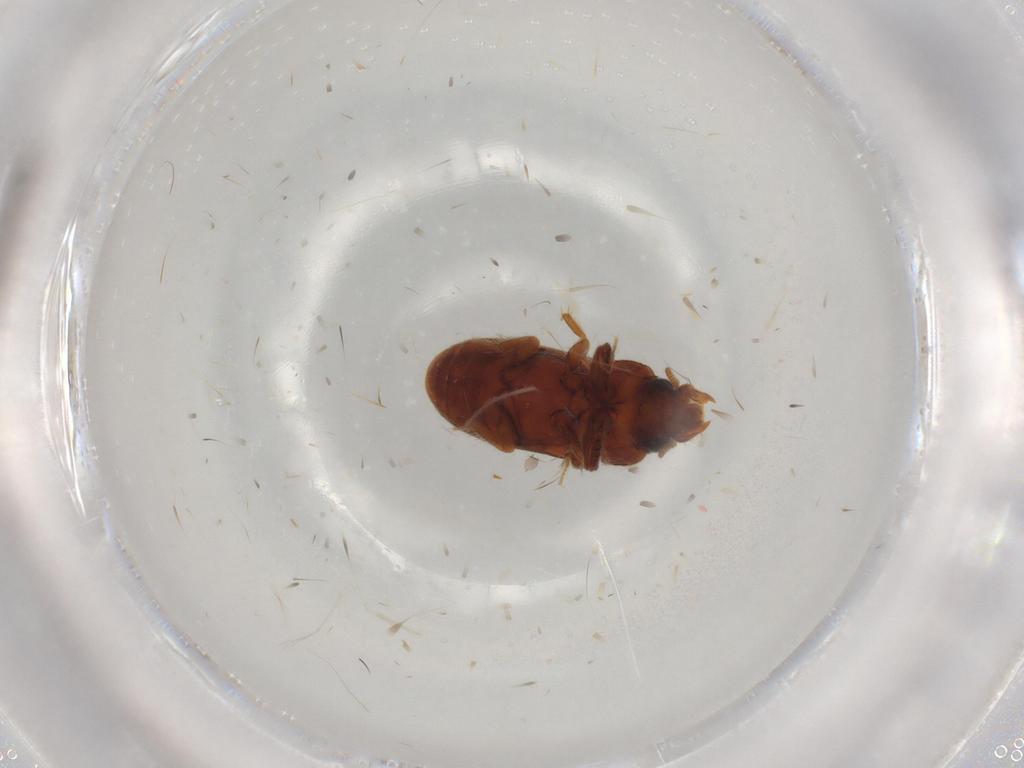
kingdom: Animalia
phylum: Arthropoda
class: Insecta
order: Coleoptera
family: Heteroceridae
